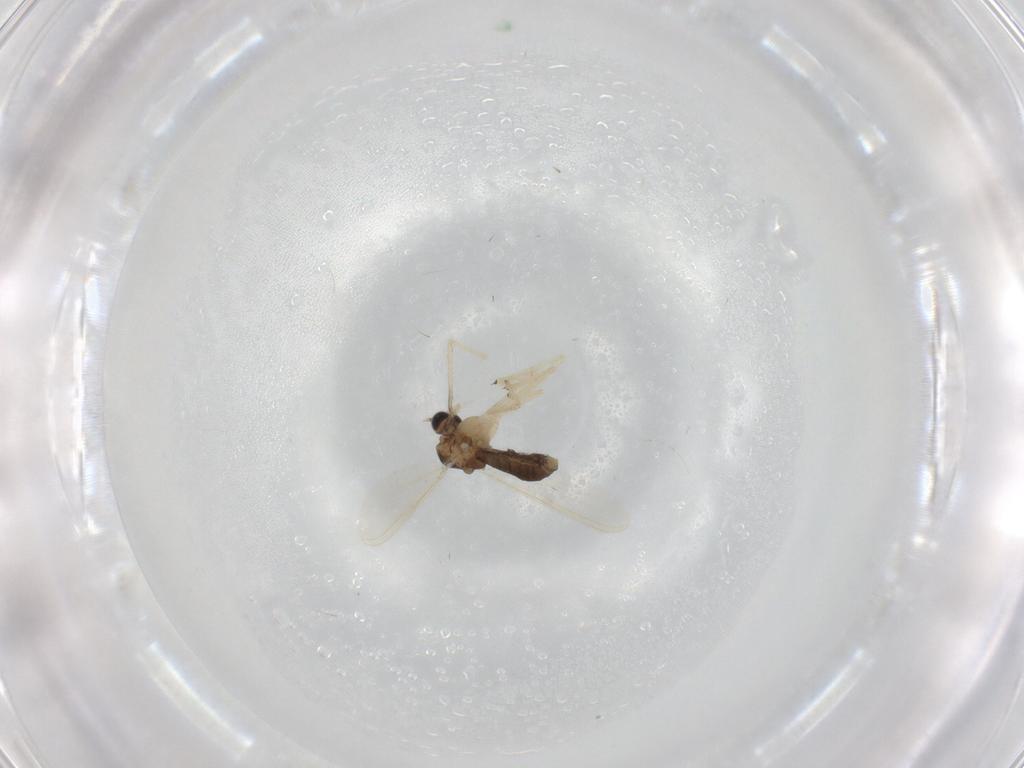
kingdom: Animalia
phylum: Arthropoda
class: Insecta
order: Diptera
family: Chironomidae
